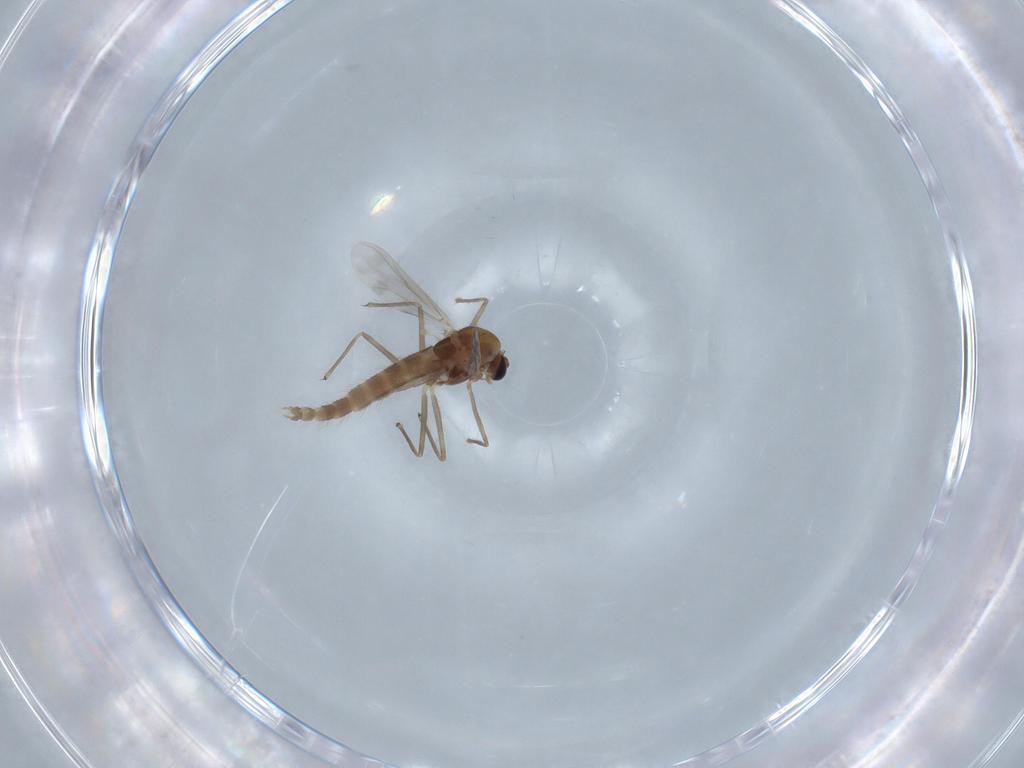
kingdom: Animalia
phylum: Arthropoda
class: Insecta
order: Diptera
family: Chironomidae
